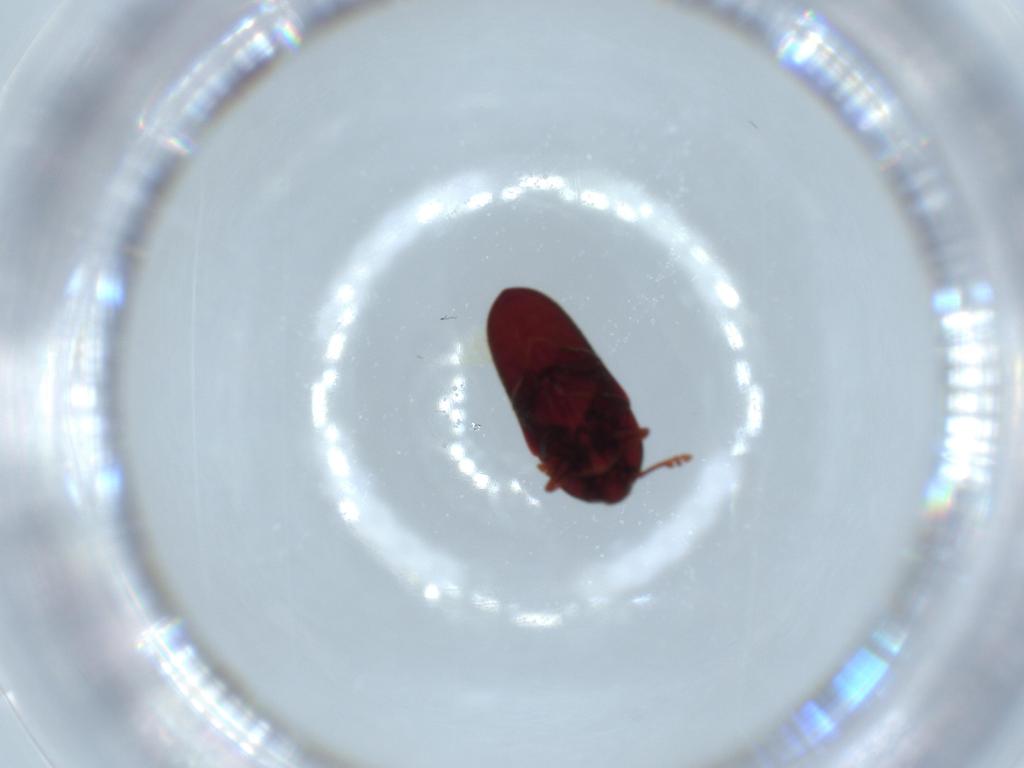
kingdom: Animalia
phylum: Arthropoda
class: Insecta
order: Coleoptera
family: Throscidae
